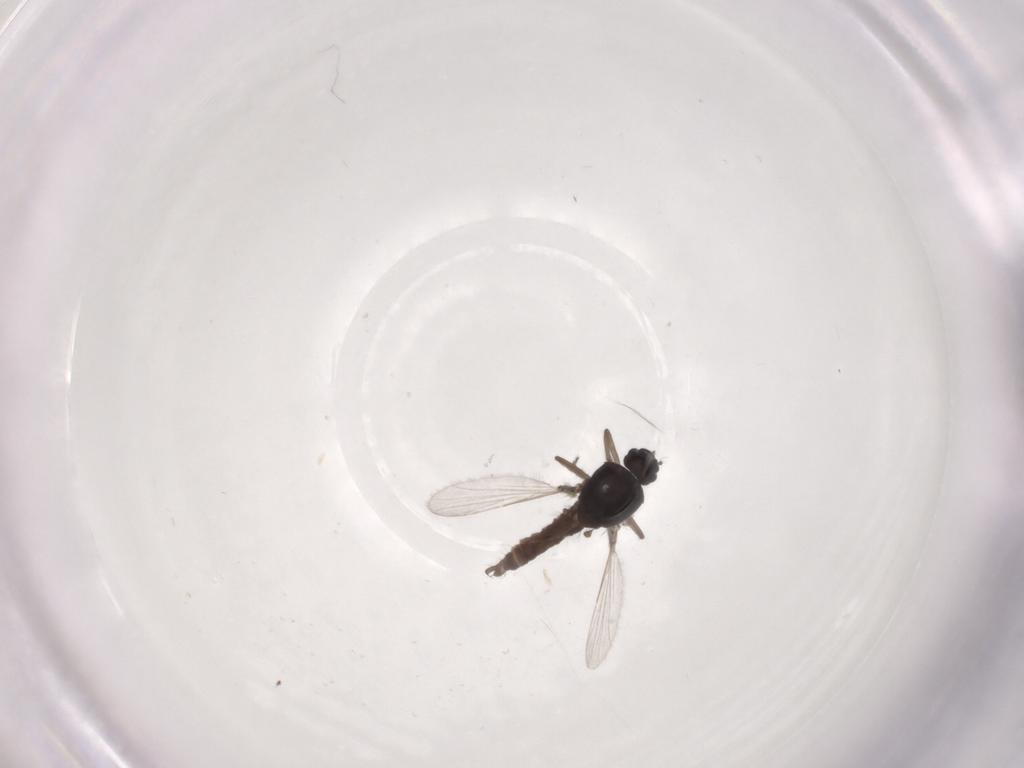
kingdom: Animalia
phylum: Arthropoda
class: Insecta
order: Diptera
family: Ceratopogonidae
